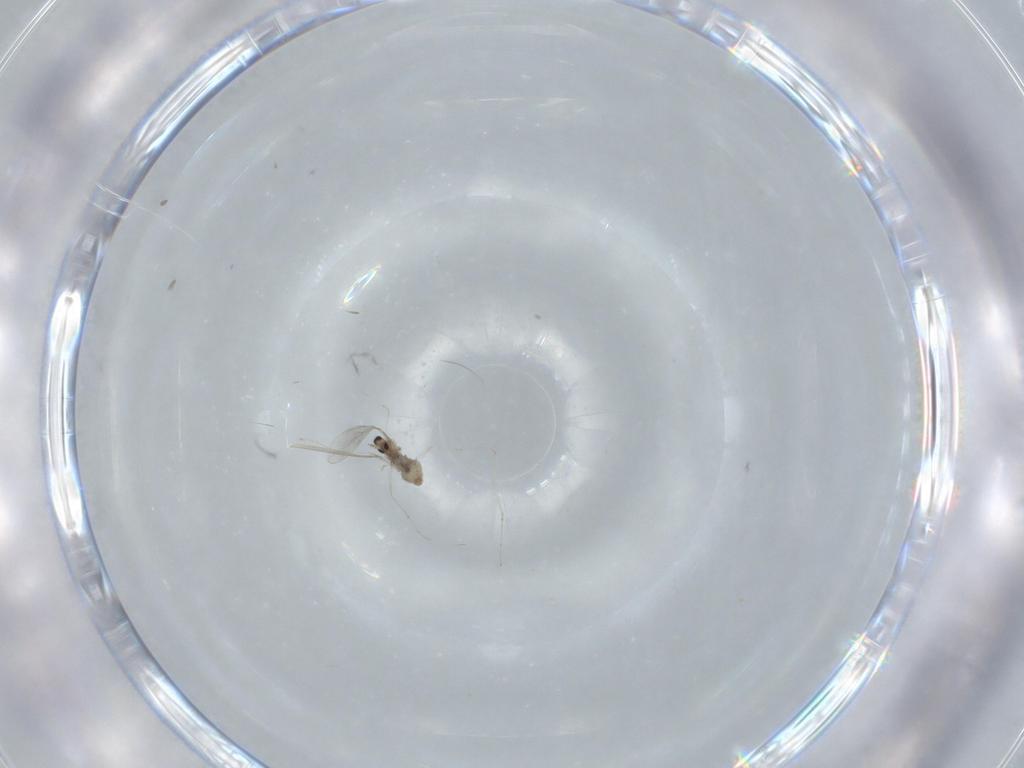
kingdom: Animalia
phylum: Arthropoda
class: Insecta
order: Diptera
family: Cecidomyiidae
